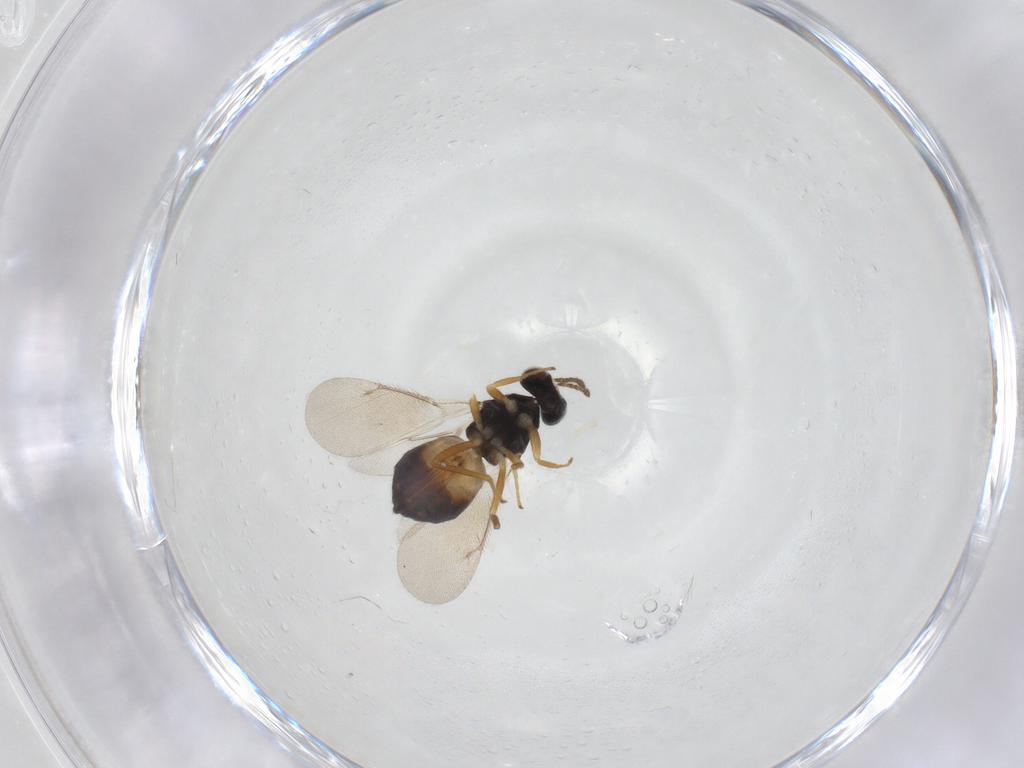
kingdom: Animalia
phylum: Arthropoda
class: Insecta
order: Hymenoptera
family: Eulophidae
